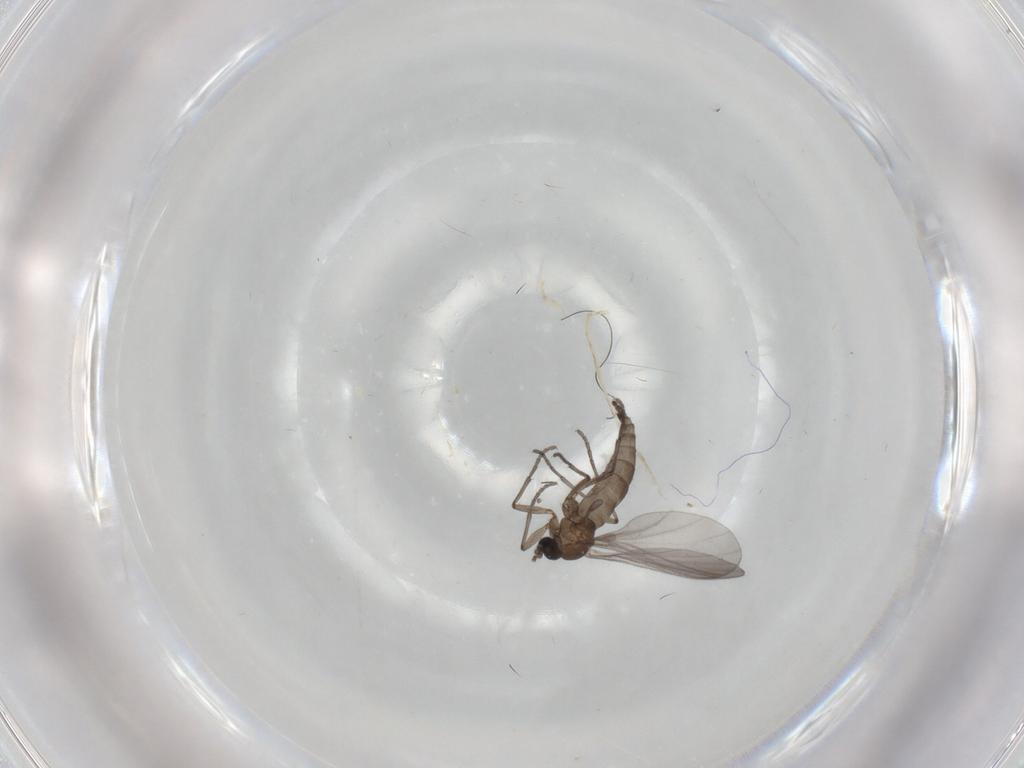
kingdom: Animalia
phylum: Arthropoda
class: Insecta
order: Diptera
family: Sciaridae
